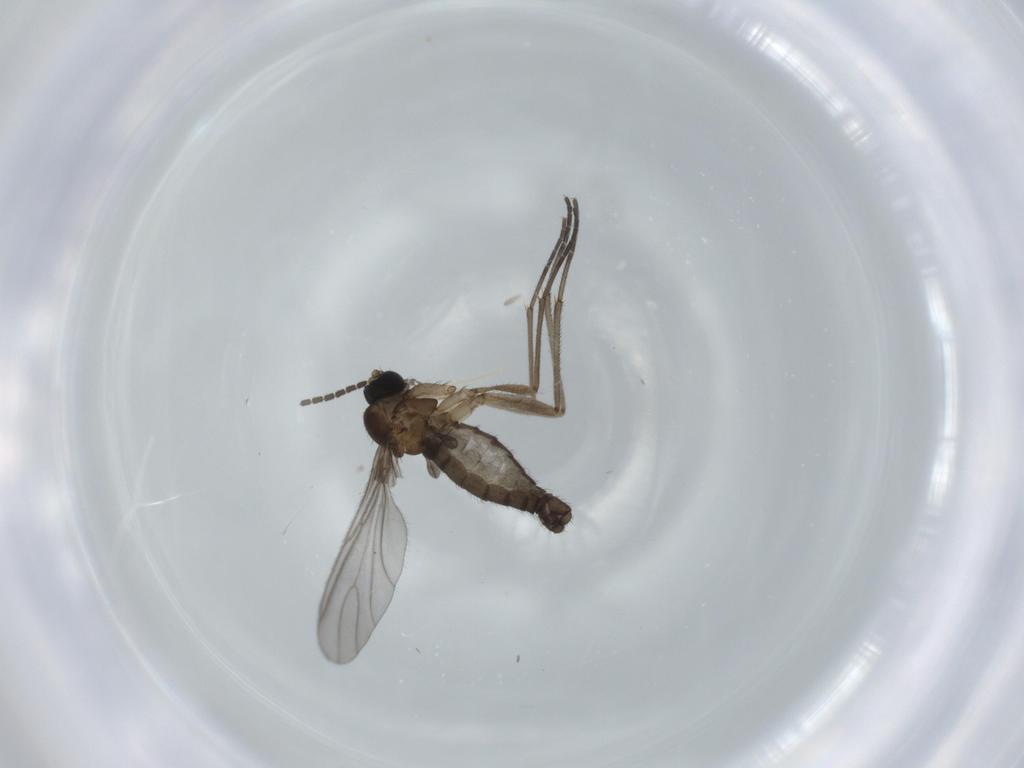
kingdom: Animalia
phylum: Arthropoda
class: Insecta
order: Diptera
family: Sciaridae
